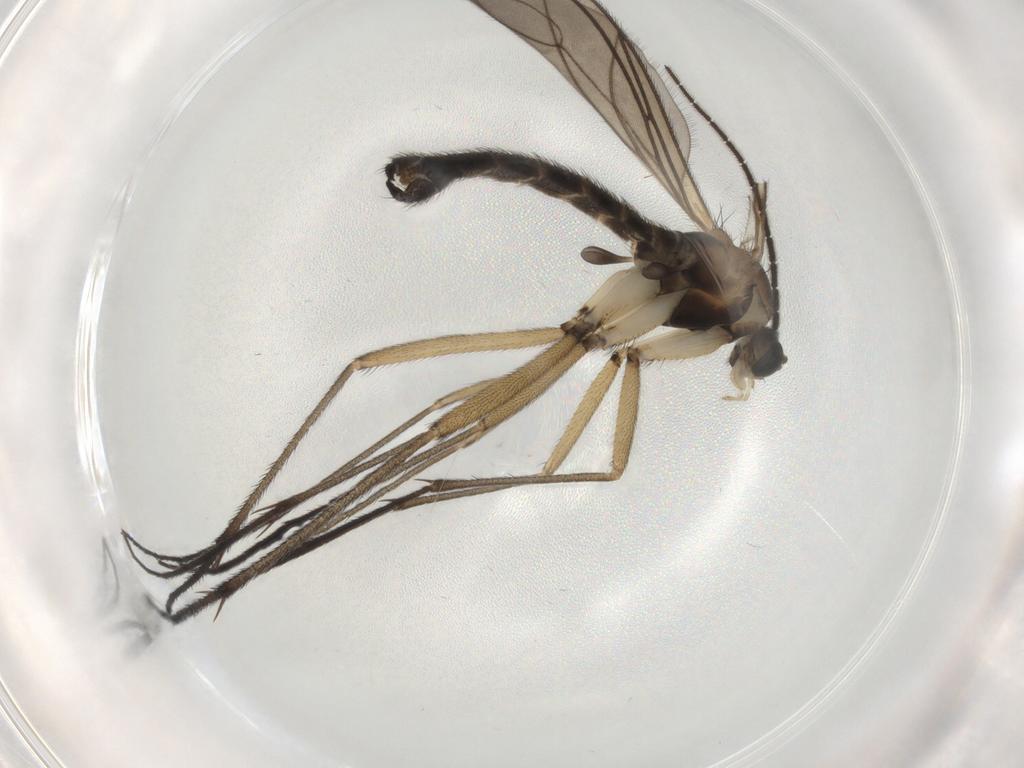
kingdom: Animalia
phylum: Arthropoda
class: Insecta
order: Diptera
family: Sciaridae
